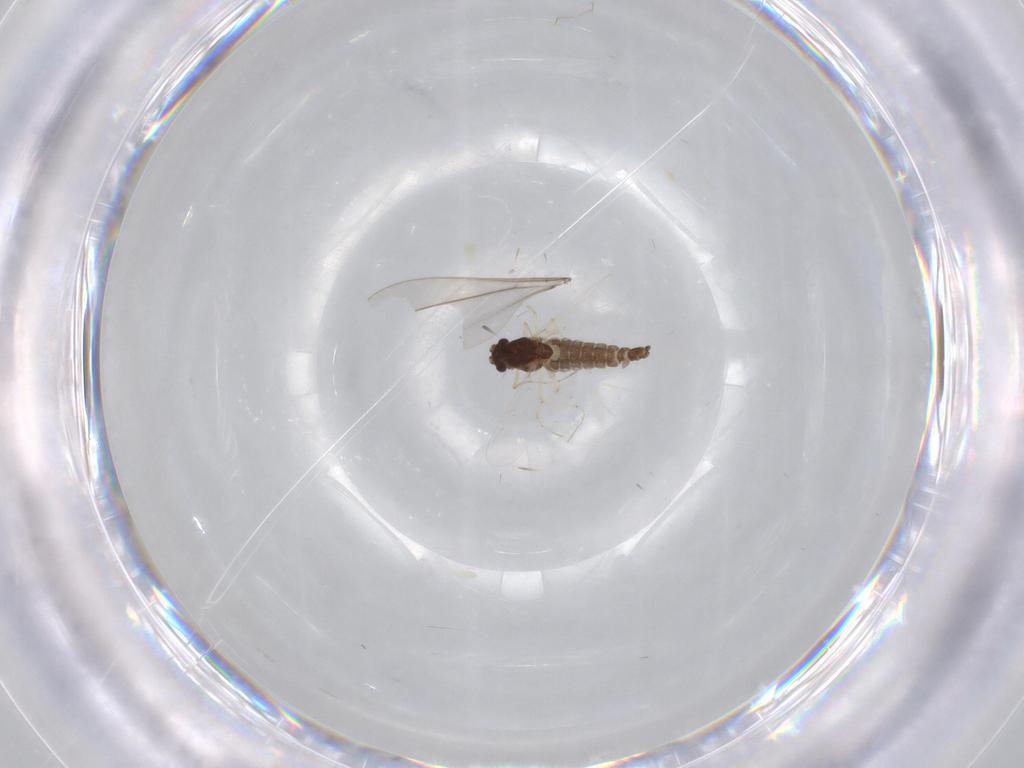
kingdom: Animalia
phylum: Arthropoda
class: Insecta
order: Diptera
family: Chironomidae
